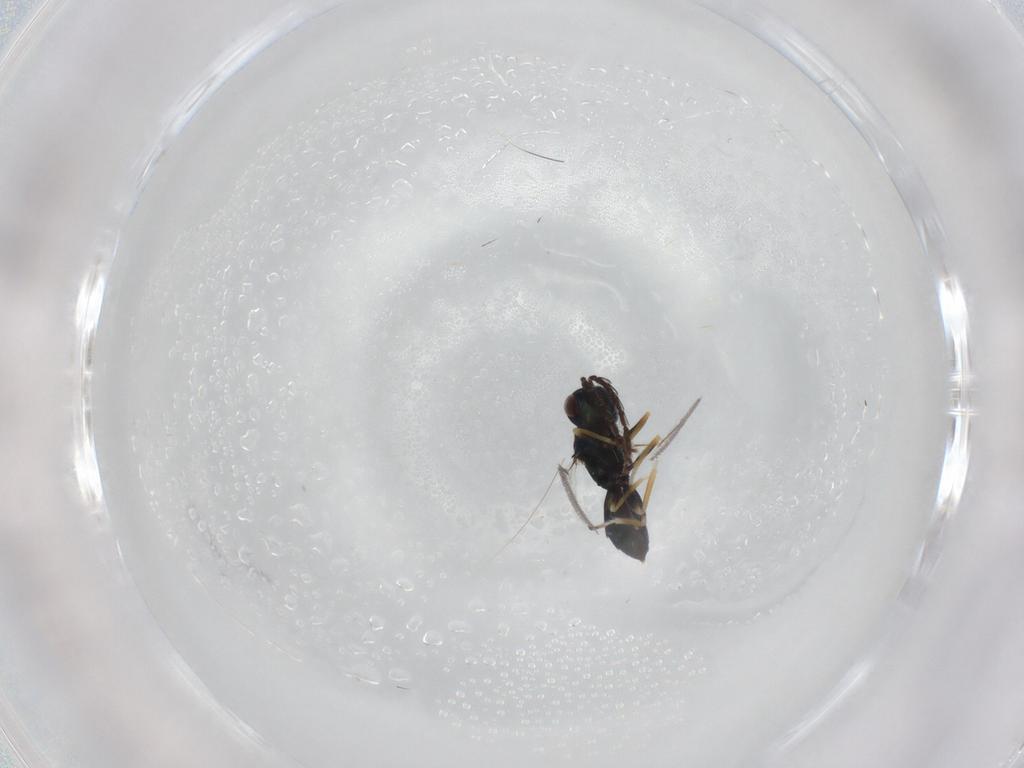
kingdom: Animalia
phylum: Arthropoda
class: Insecta
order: Hymenoptera
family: Eulophidae
